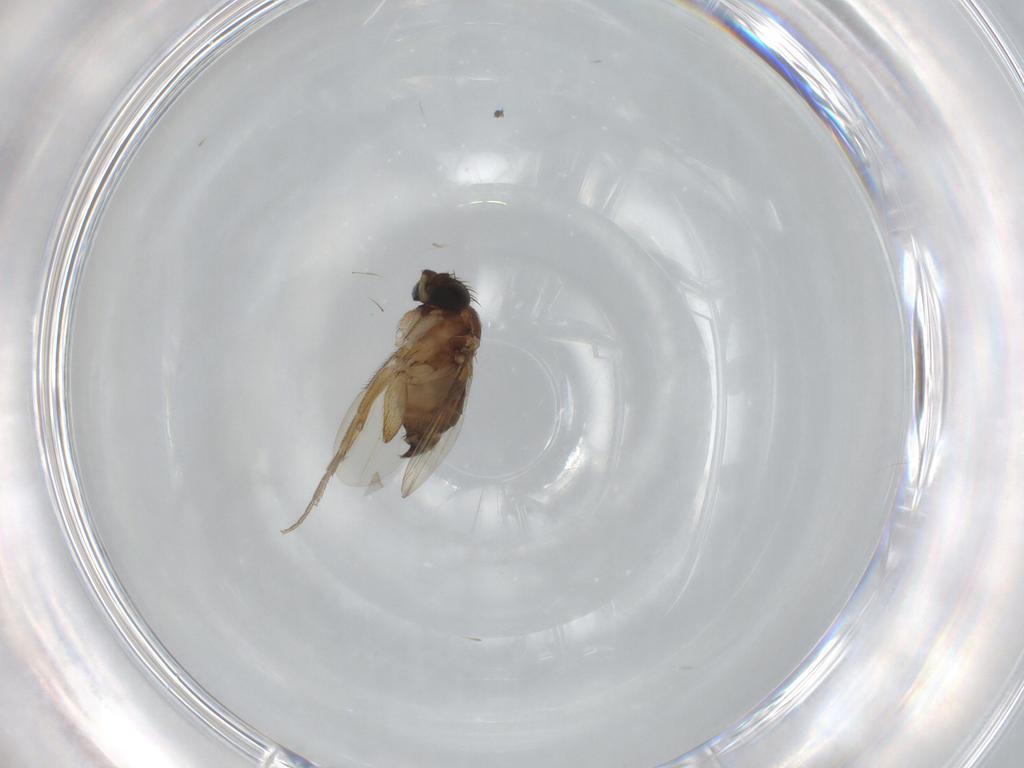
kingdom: Animalia
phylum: Arthropoda
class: Insecta
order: Diptera
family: Phoridae
